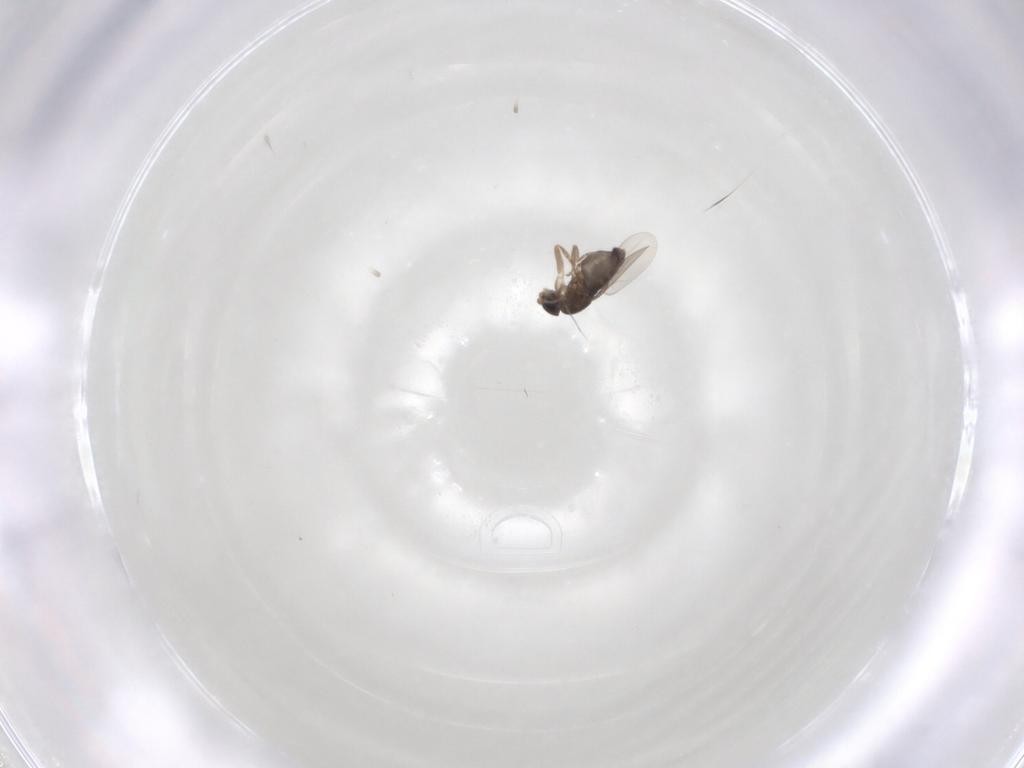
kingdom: Animalia
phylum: Arthropoda
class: Insecta
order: Diptera
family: Phoridae
